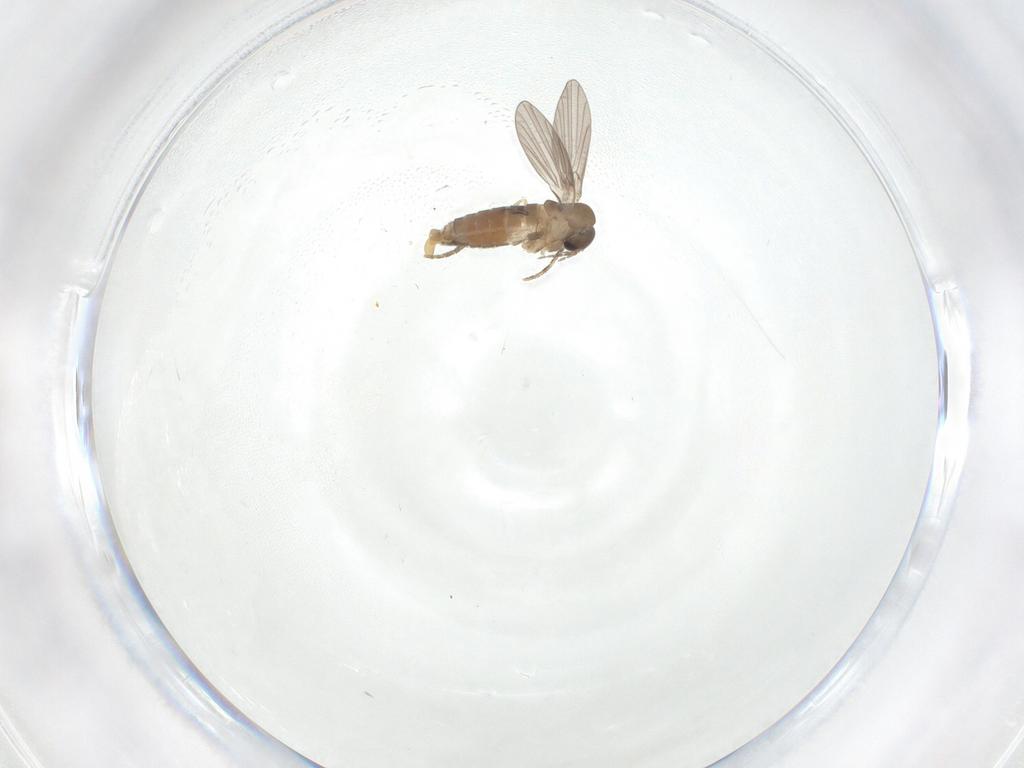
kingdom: Animalia
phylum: Arthropoda
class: Insecta
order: Diptera
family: Sciaridae
